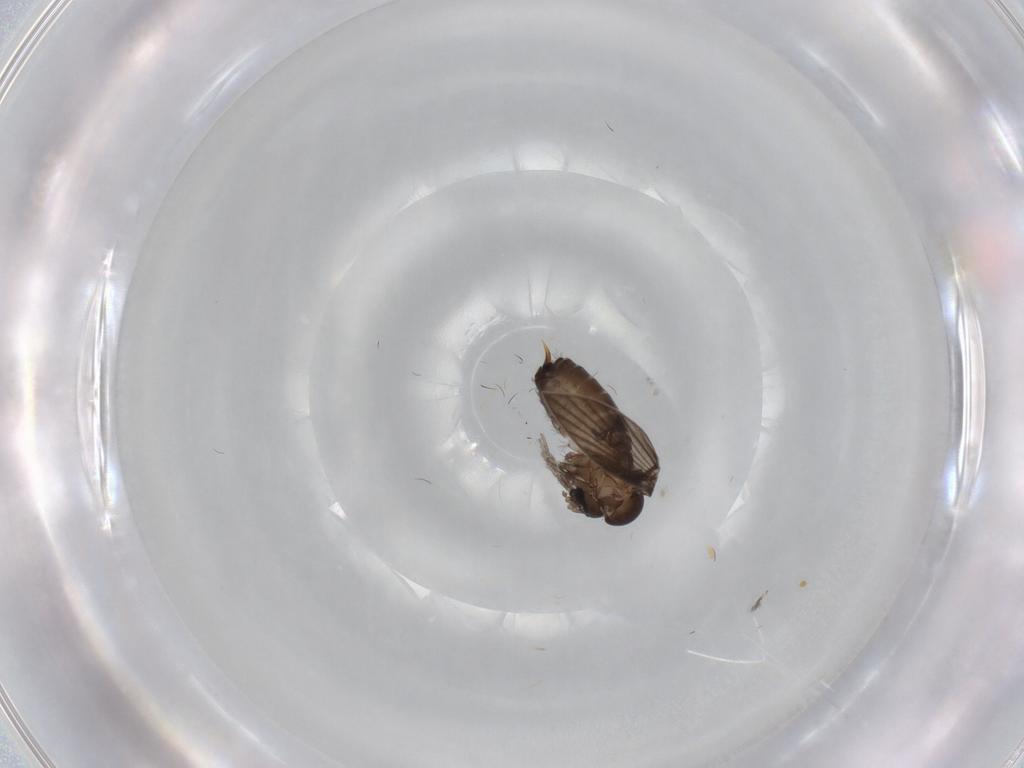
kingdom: Animalia
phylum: Arthropoda
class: Insecta
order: Diptera
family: Psychodidae
